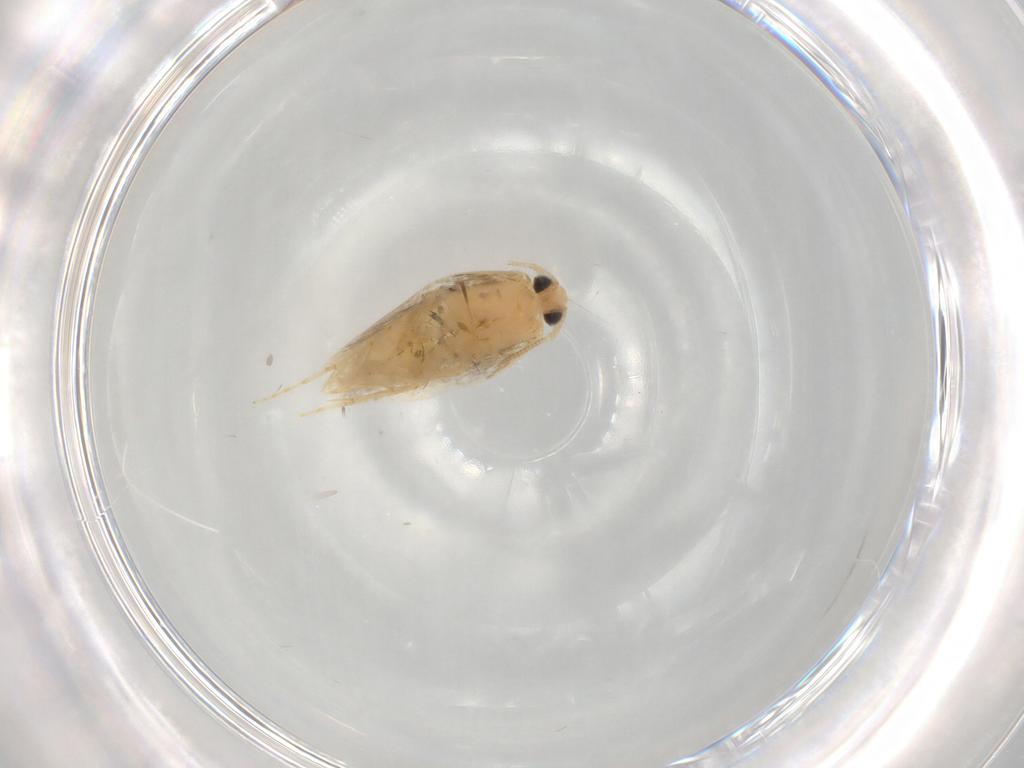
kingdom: Animalia
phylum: Arthropoda
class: Insecta
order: Lepidoptera
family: Opostegidae
